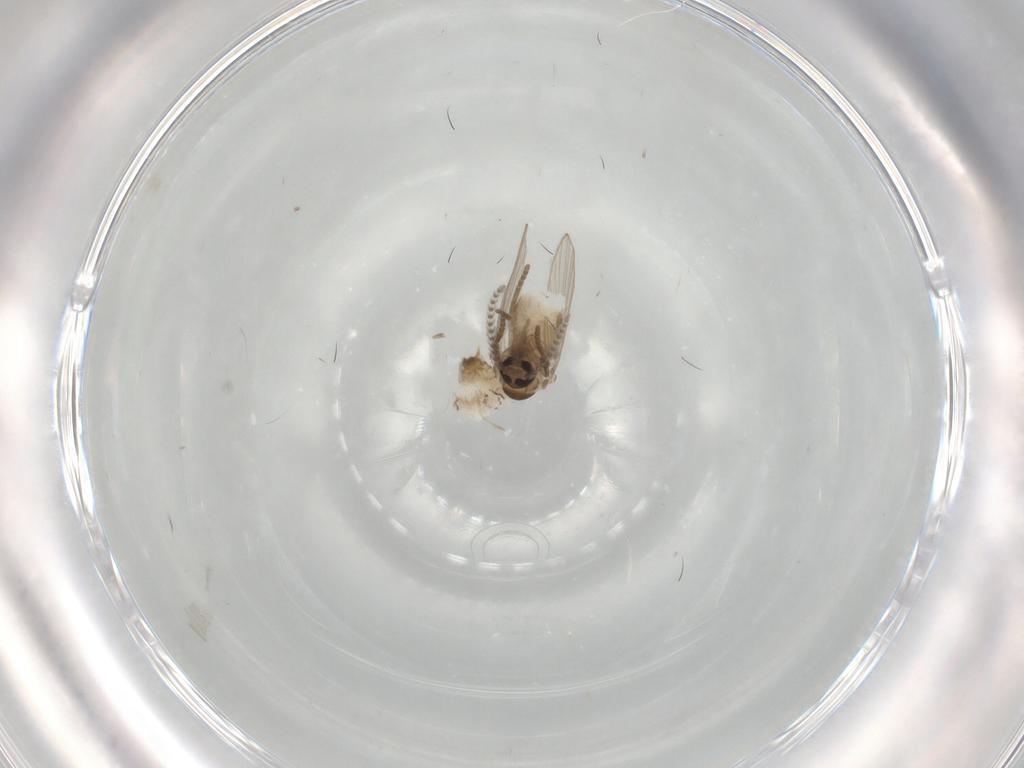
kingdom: Animalia
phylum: Arthropoda
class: Insecta
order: Diptera
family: Psychodidae
